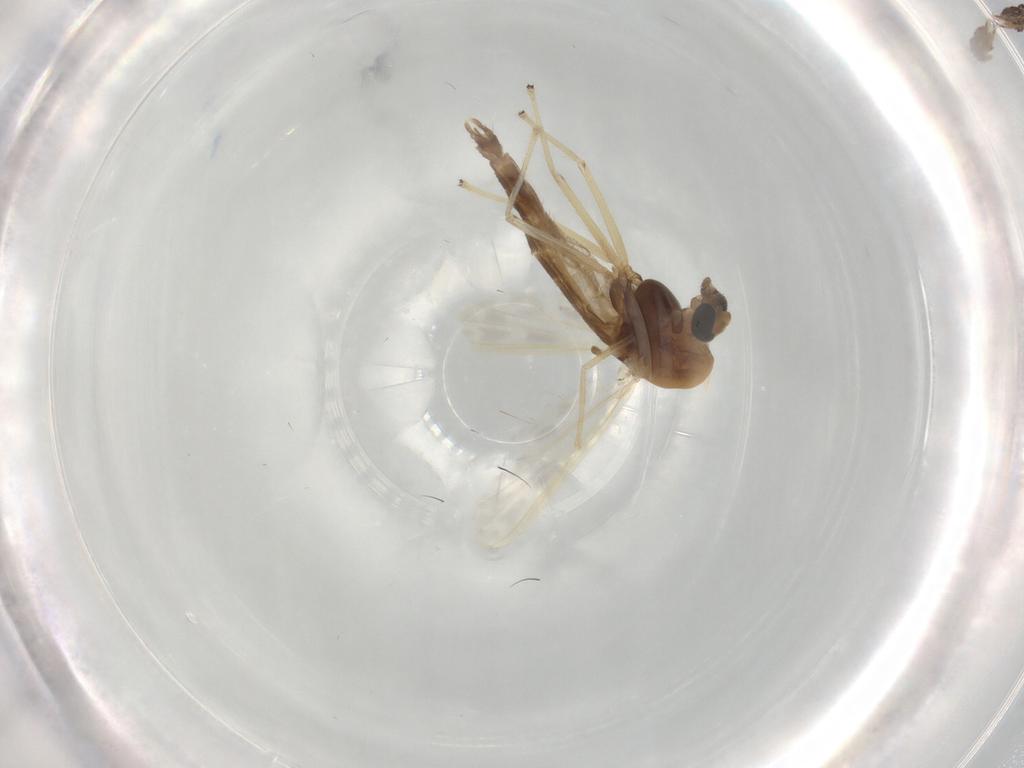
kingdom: Animalia
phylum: Arthropoda
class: Insecta
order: Diptera
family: Chironomidae
